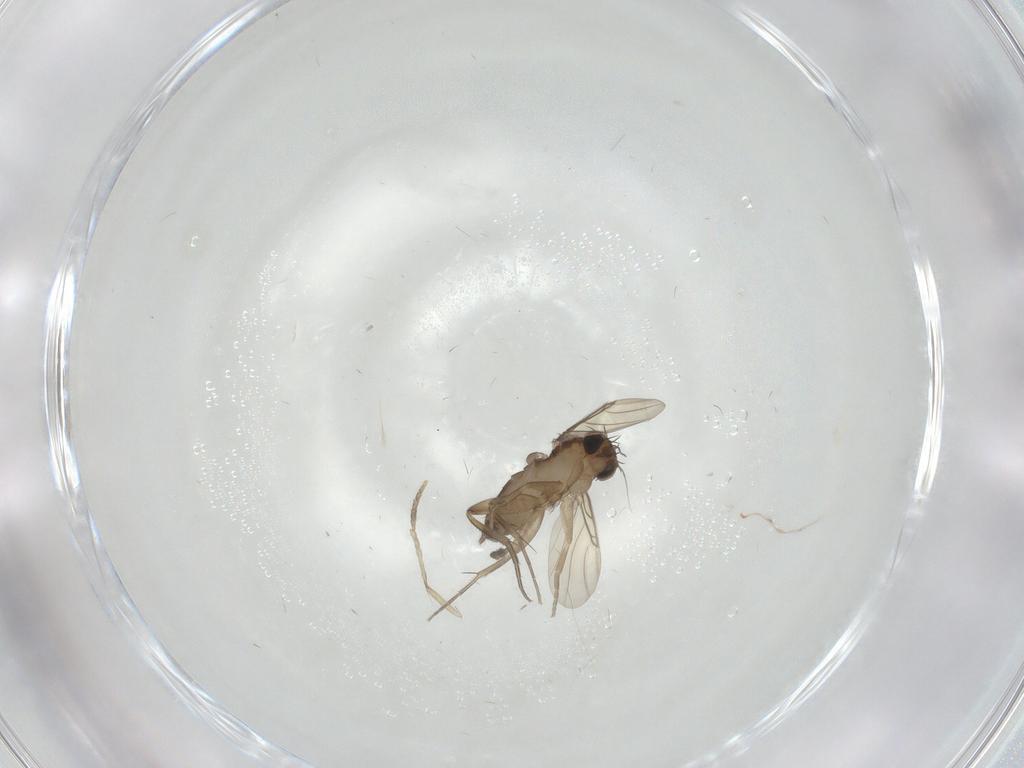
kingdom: Animalia
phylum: Arthropoda
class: Insecta
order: Diptera
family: Phoridae
